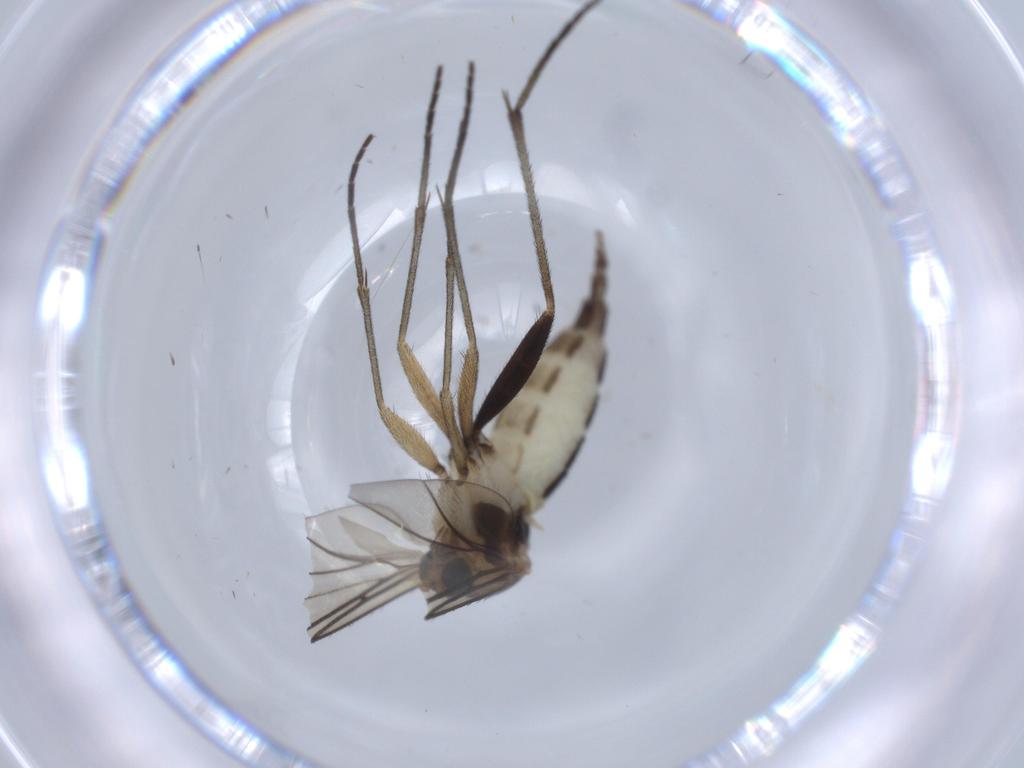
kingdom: Animalia
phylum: Arthropoda
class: Insecta
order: Diptera
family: Sciaridae
